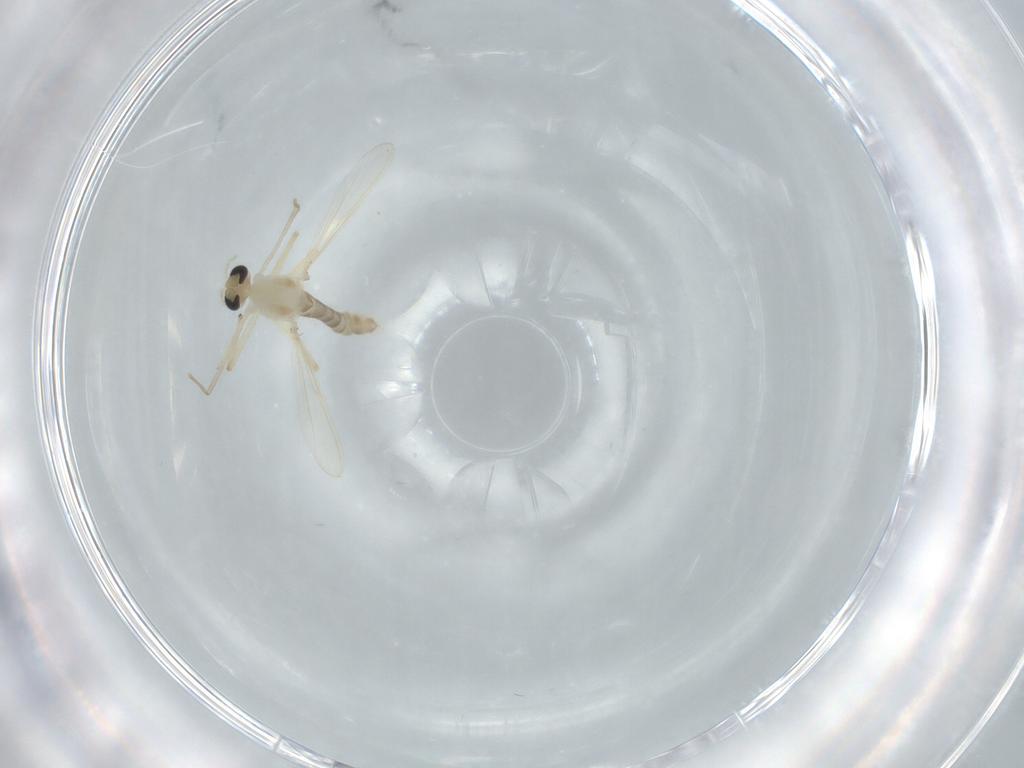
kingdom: Animalia
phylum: Arthropoda
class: Insecta
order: Diptera
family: Chironomidae
